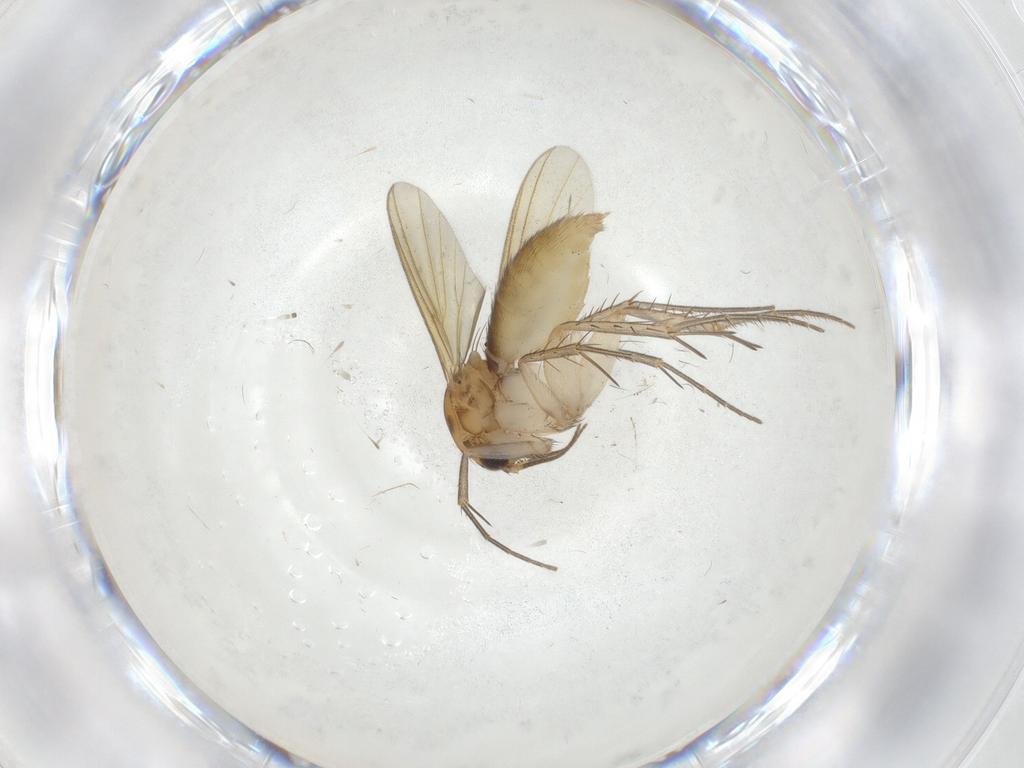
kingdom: Animalia
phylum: Arthropoda
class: Insecta
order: Diptera
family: Mycetophilidae
